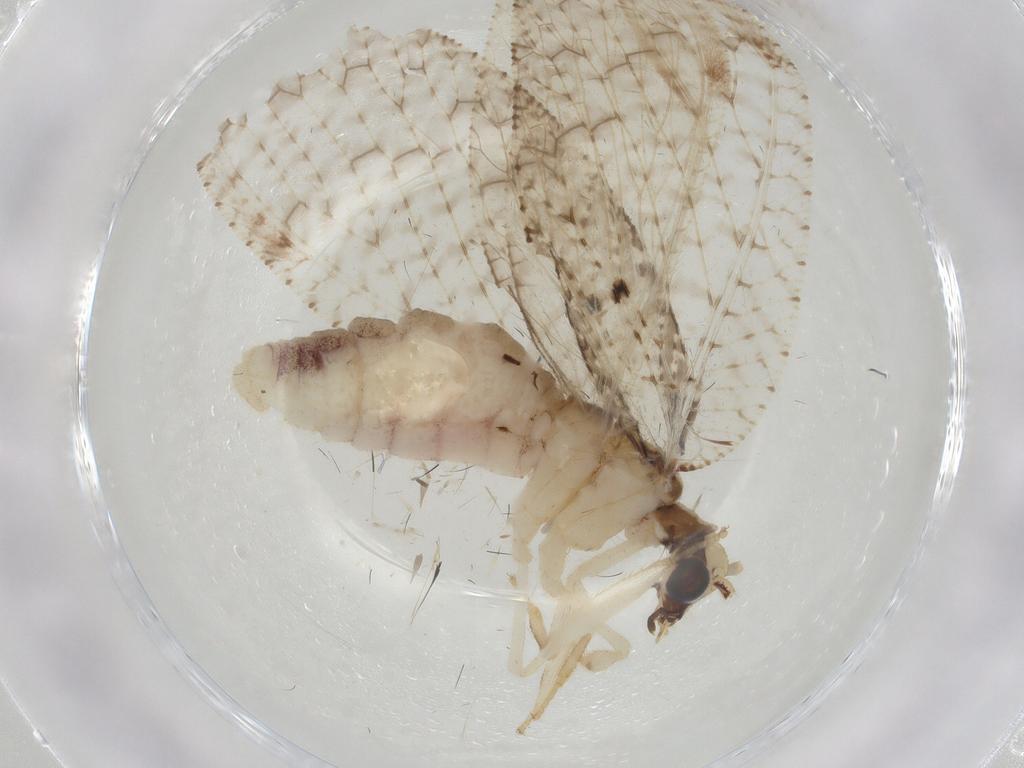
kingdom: Animalia
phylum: Arthropoda
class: Insecta
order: Neuroptera
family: Hemerobiidae
